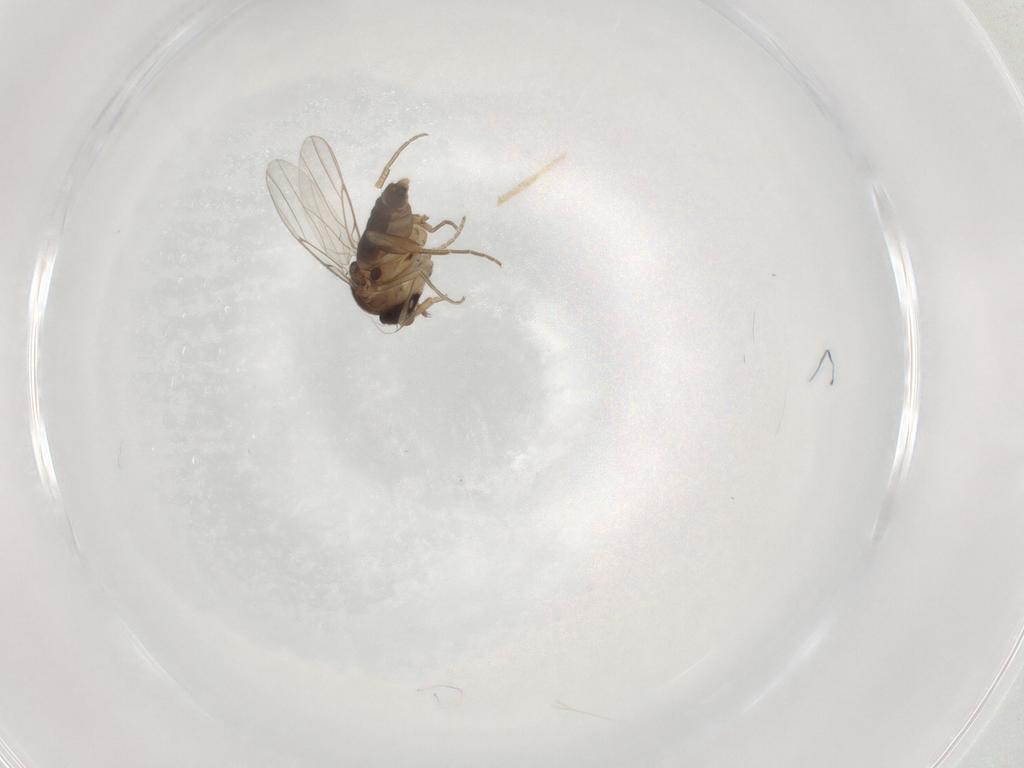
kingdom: Animalia
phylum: Arthropoda
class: Insecta
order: Diptera
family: Phoridae
